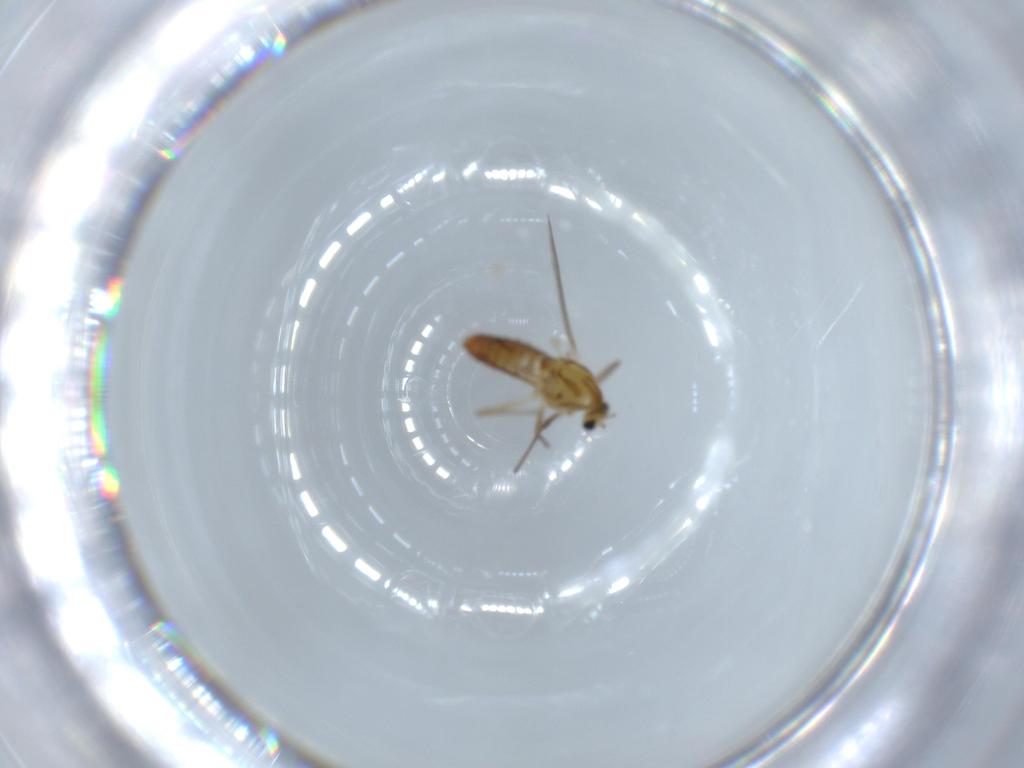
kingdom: Animalia
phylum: Arthropoda
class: Insecta
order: Diptera
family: Chironomidae
